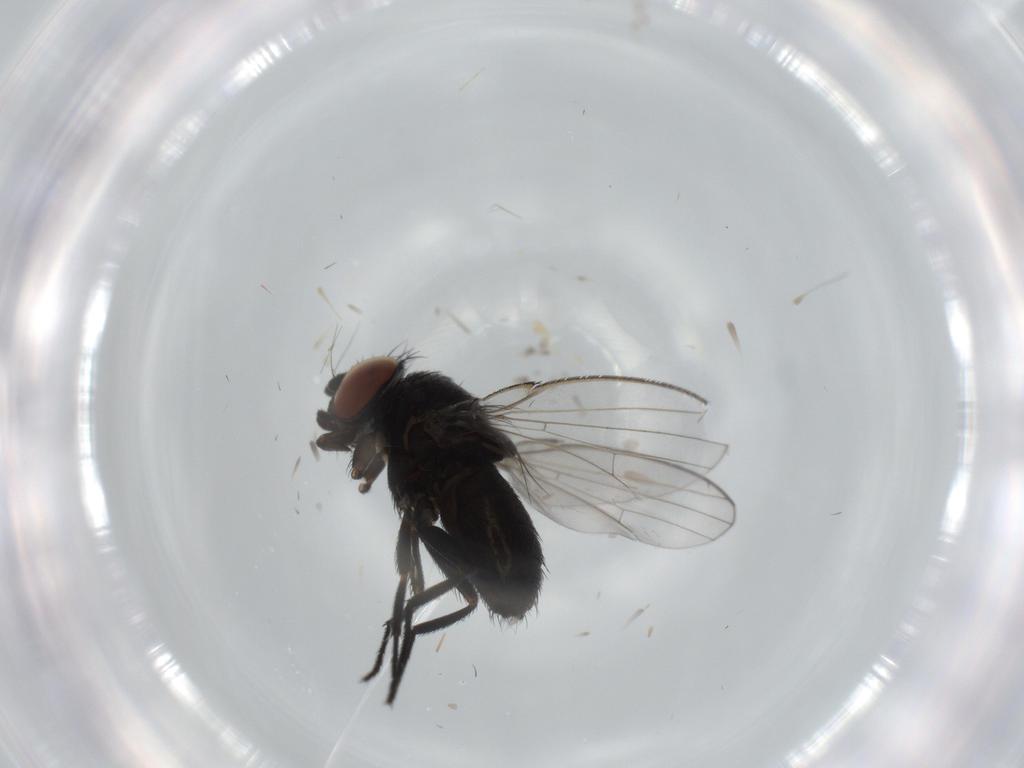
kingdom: Animalia
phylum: Arthropoda
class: Insecta
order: Diptera
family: Milichiidae
